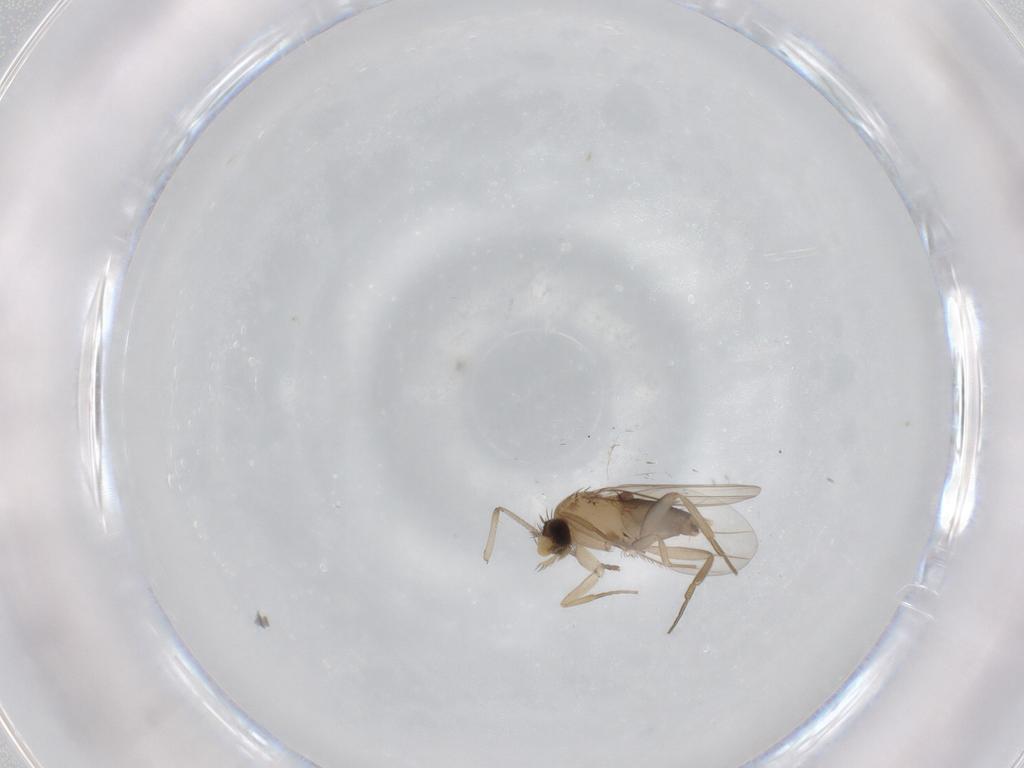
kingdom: Animalia
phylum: Arthropoda
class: Insecta
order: Diptera
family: Phoridae
